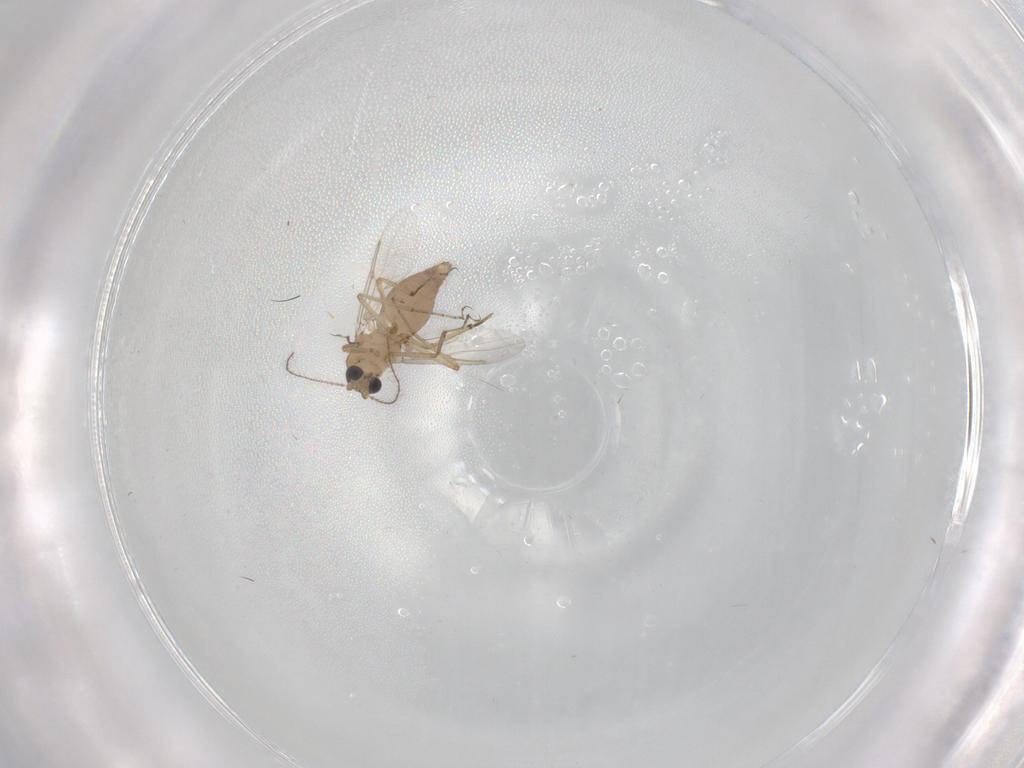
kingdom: Animalia
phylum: Arthropoda
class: Insecta
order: Diptera
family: Ceratopogonidae
